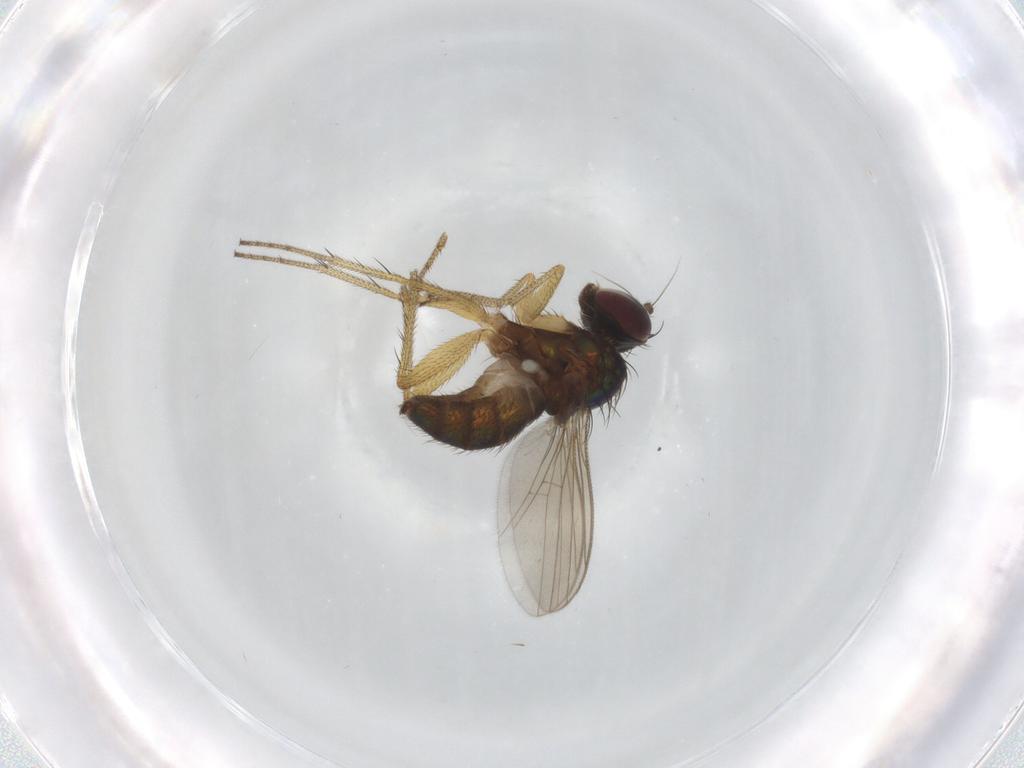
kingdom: Animalia
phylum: Arthropoda
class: Insecta
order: Diptera
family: Dolichopodidae
